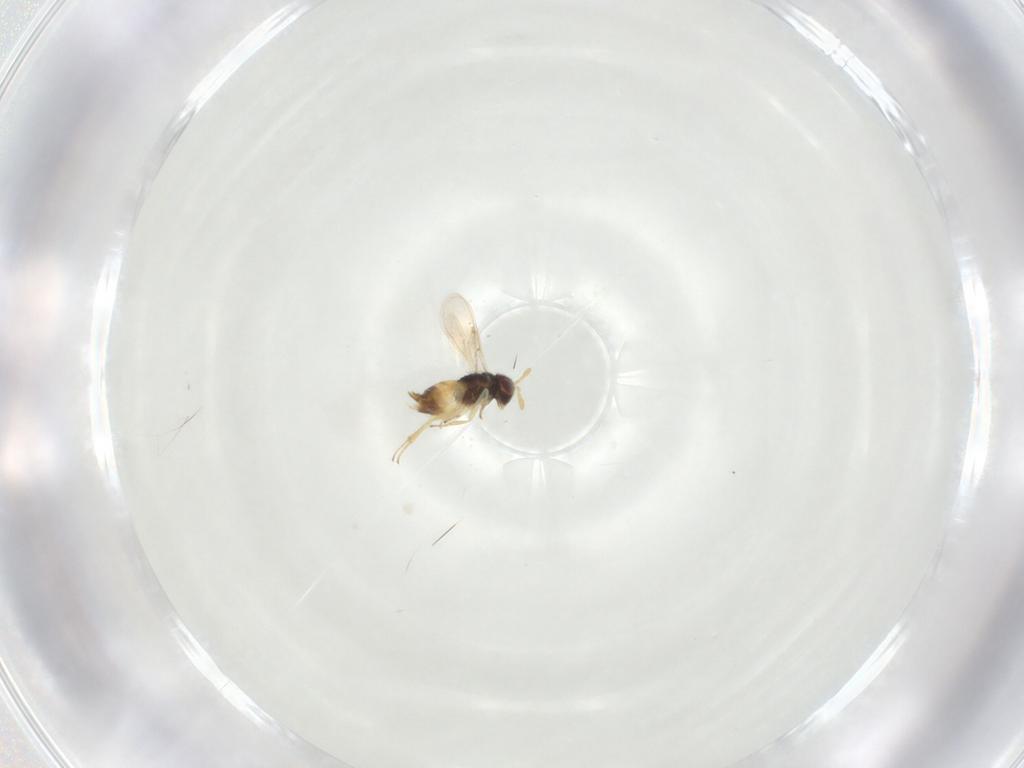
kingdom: Animalia
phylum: Arthropoda
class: Insecta
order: Hymenoptera
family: Aphelinidae
